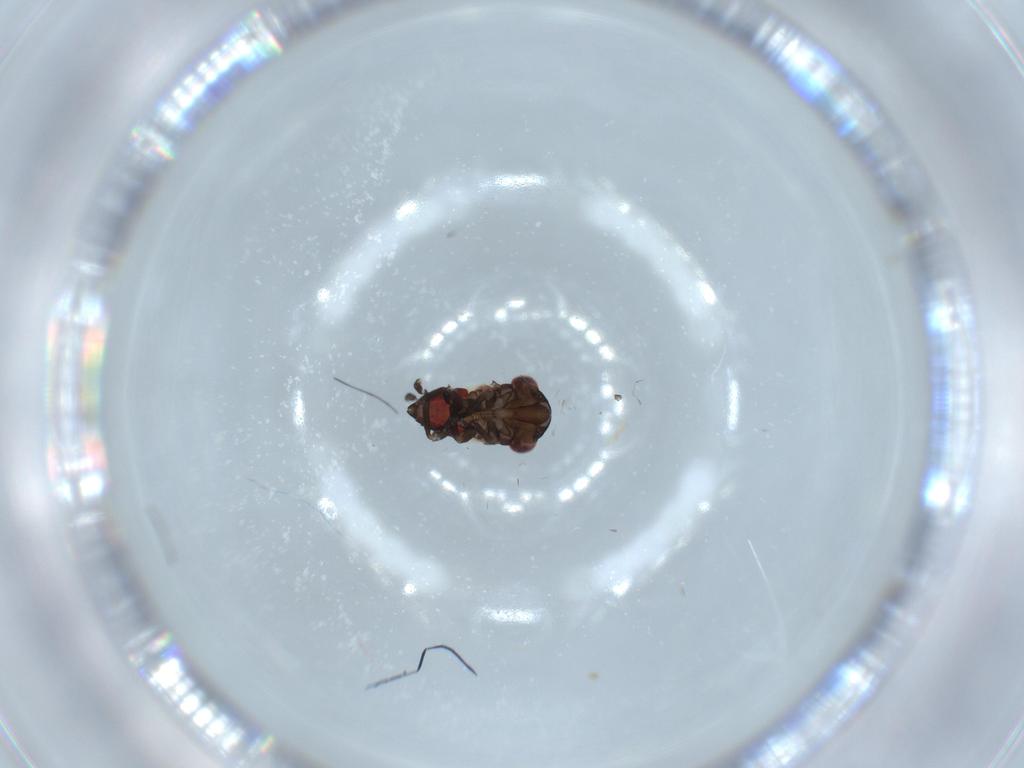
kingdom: Animalia
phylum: Arthropoda
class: Insecta
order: Hemiptera
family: Cicadellidae
